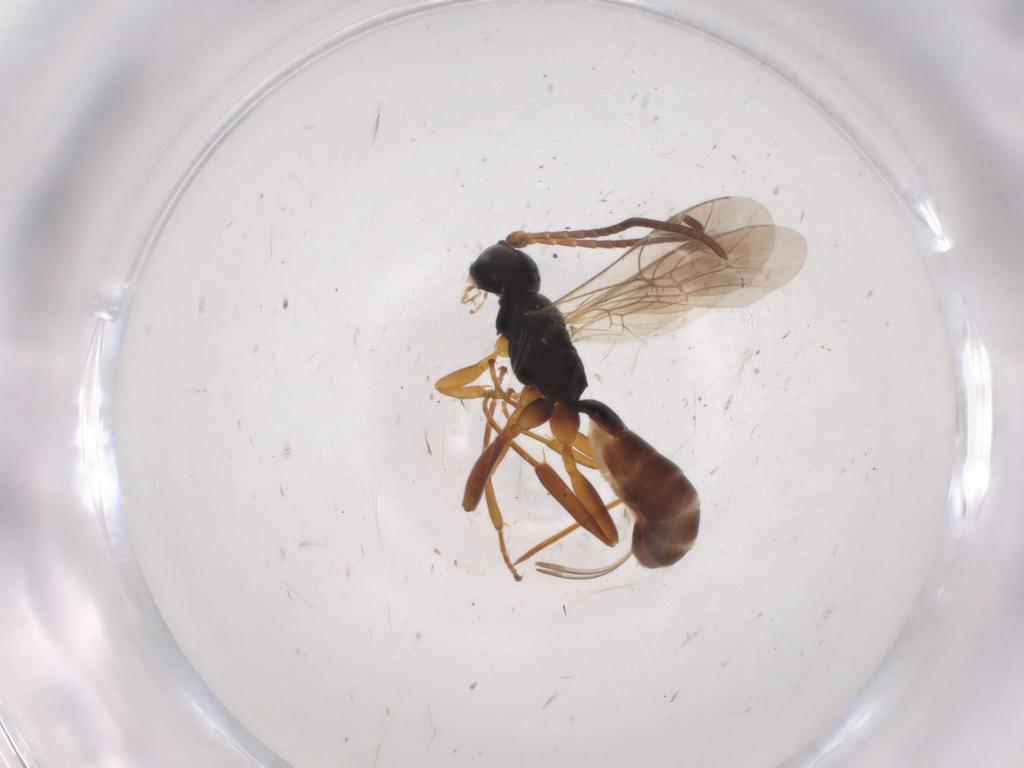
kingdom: Animalia
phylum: Arthropoda
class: Insecta
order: Hymenoptera
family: Ichneumonidae
